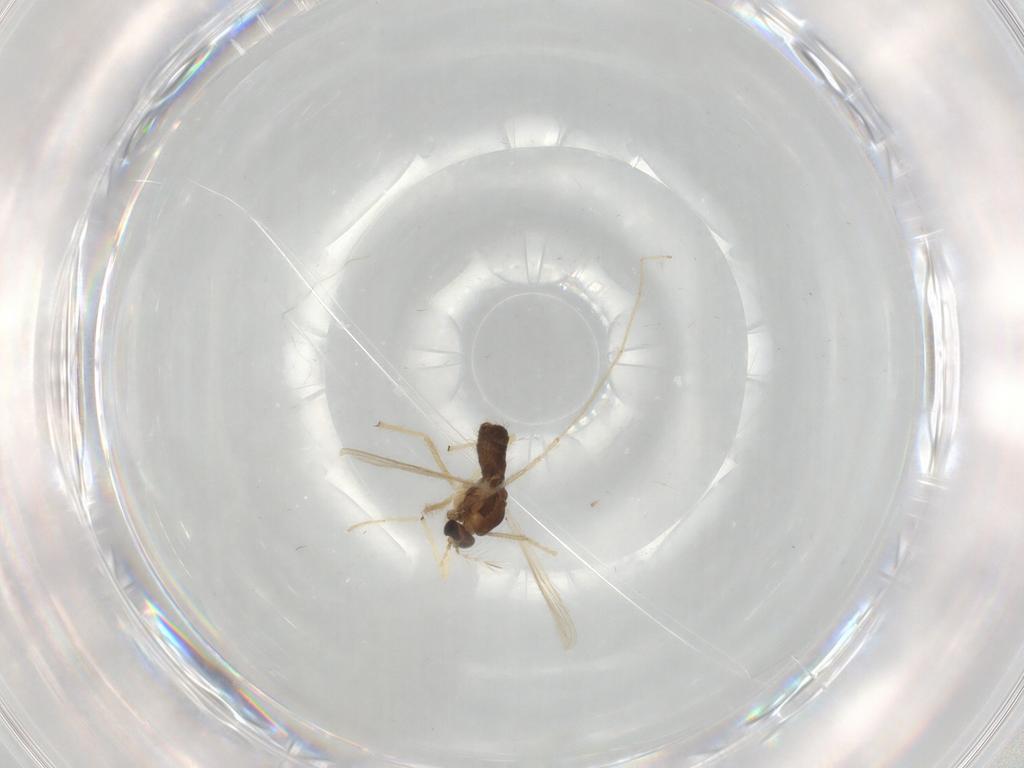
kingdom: Animalia
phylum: Arthropoda
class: Insecta
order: Diptera
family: Chironomidae
